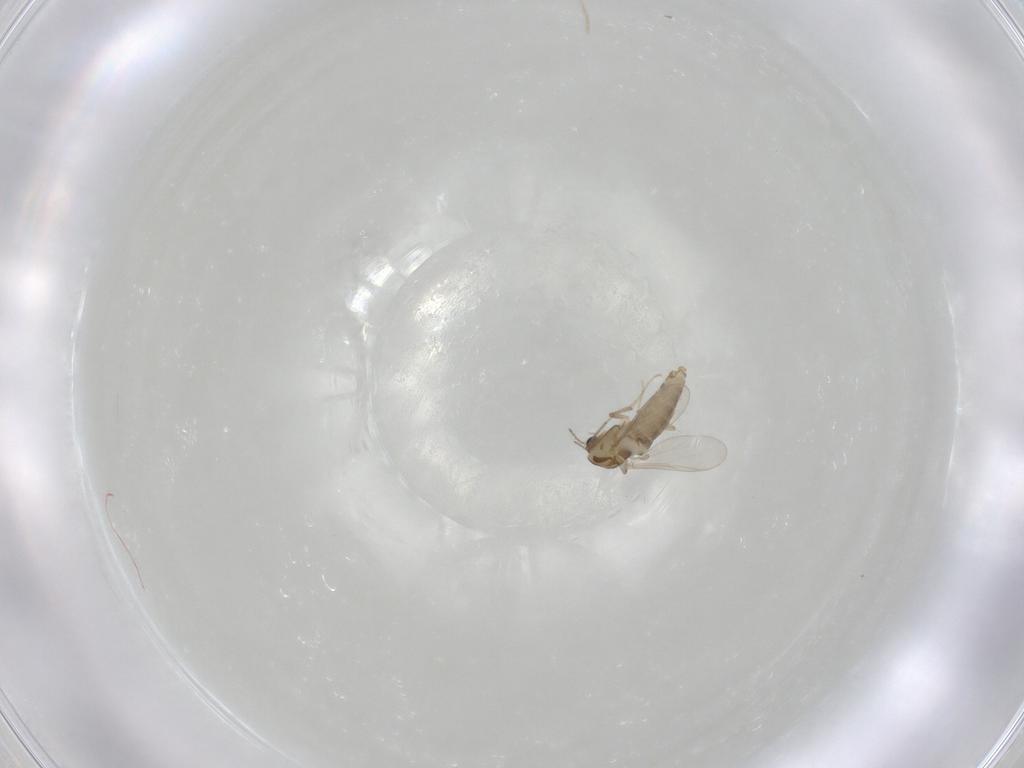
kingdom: Animalia
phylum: Arthropoda
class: Insecta
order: Diptera
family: Chironomidae
